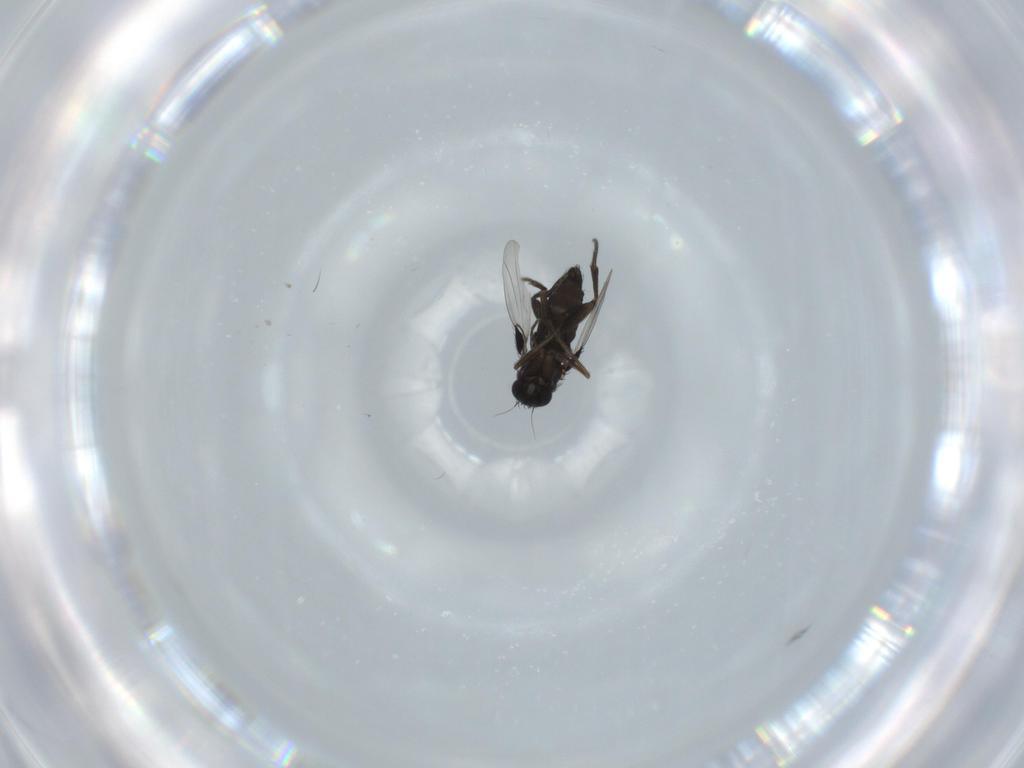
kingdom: Animalia
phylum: Arthropoda
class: Insecta
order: Diptera
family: Phoridae
